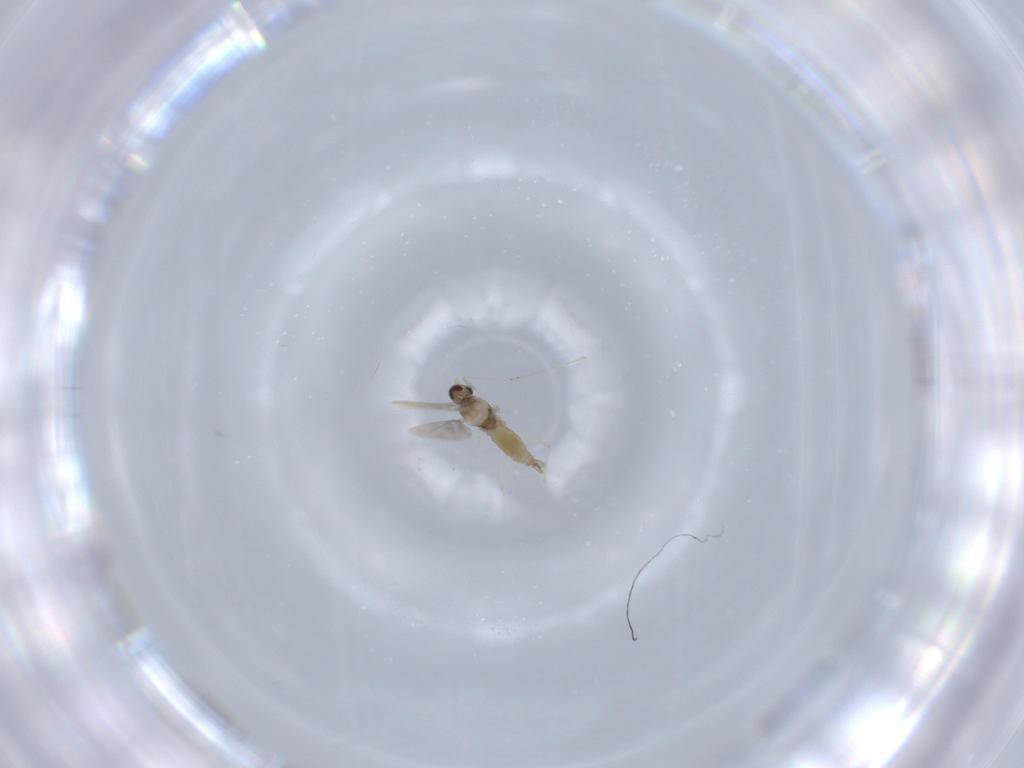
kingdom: Animalia
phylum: Arthropoda
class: Insecta
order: Diptera
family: Cecidomyiidae
